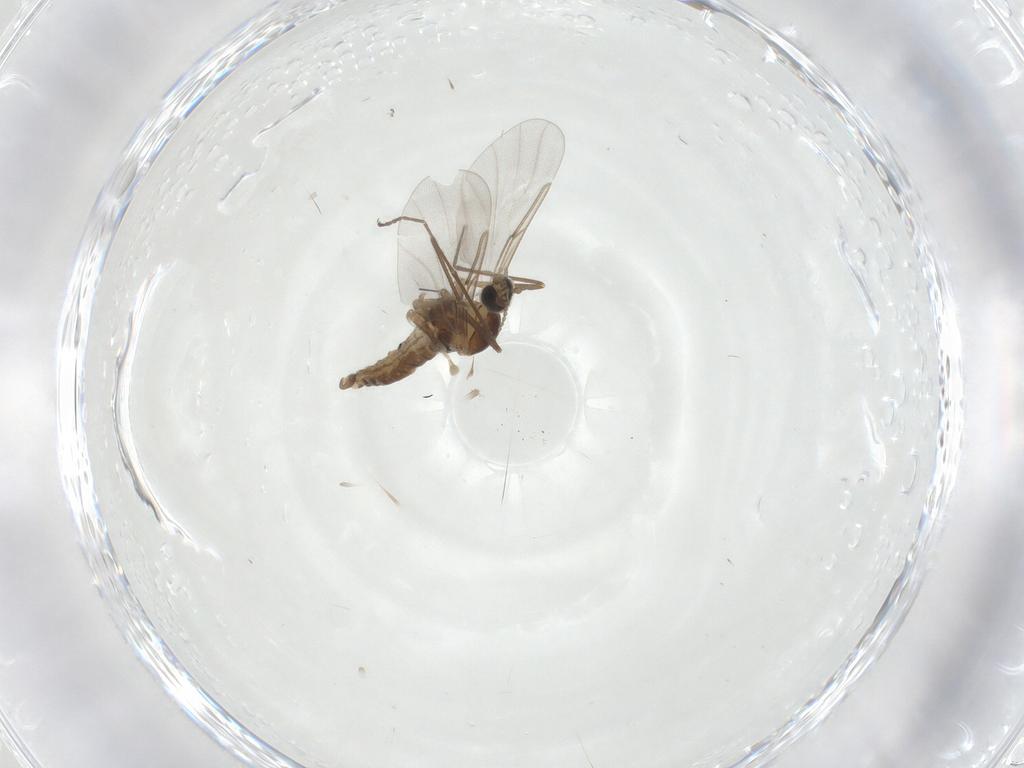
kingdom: Animalia
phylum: Arthropoda
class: Insecta
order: Diptera
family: Cecidomyiidae
